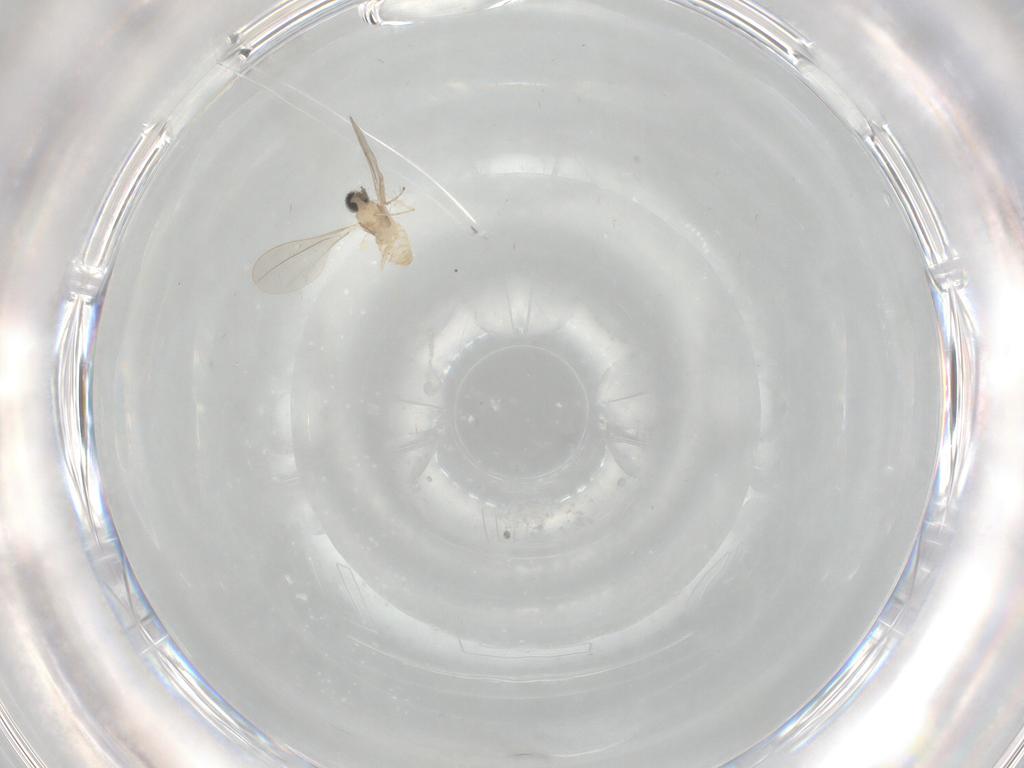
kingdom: Animalia
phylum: Arthropoda
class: Insecta
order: Diptera
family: Cecidomyiidae
